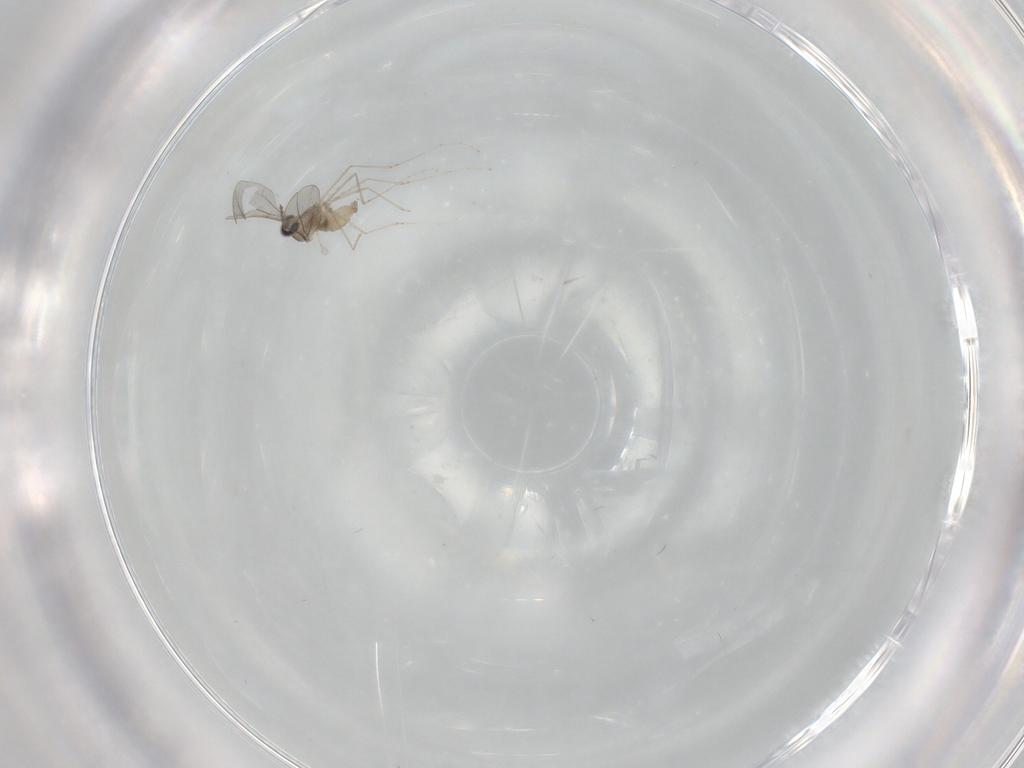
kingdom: Animalia
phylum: Arthropoda
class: Insecta
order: Diptera
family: Cecidomyiidae
